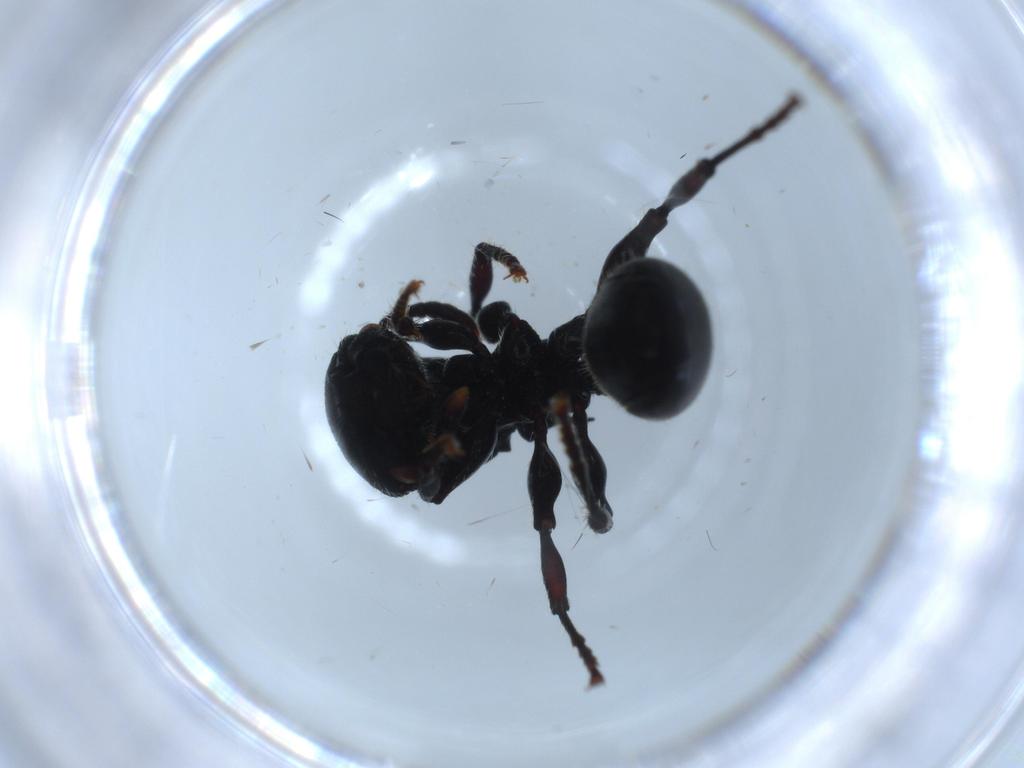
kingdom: Animalia
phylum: Arthropoda
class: Insecta
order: Hymenoptera
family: Formicidae
